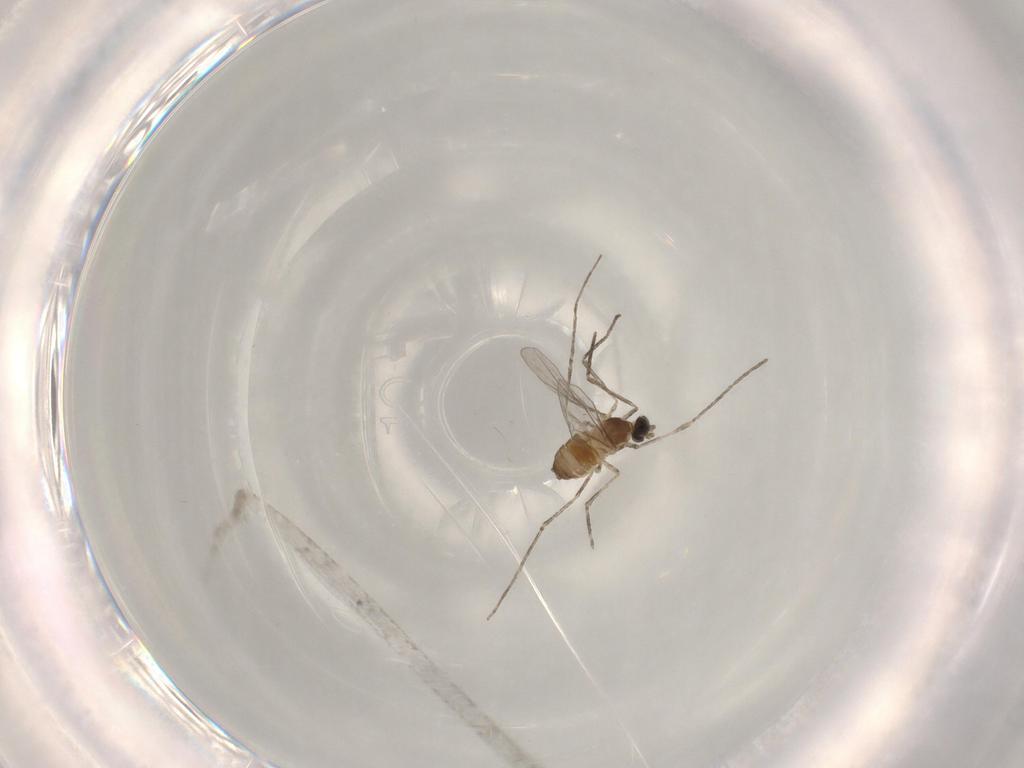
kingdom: Animalia
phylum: Arthropoda
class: Insecta
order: Diptera
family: Cecidomyiidae
